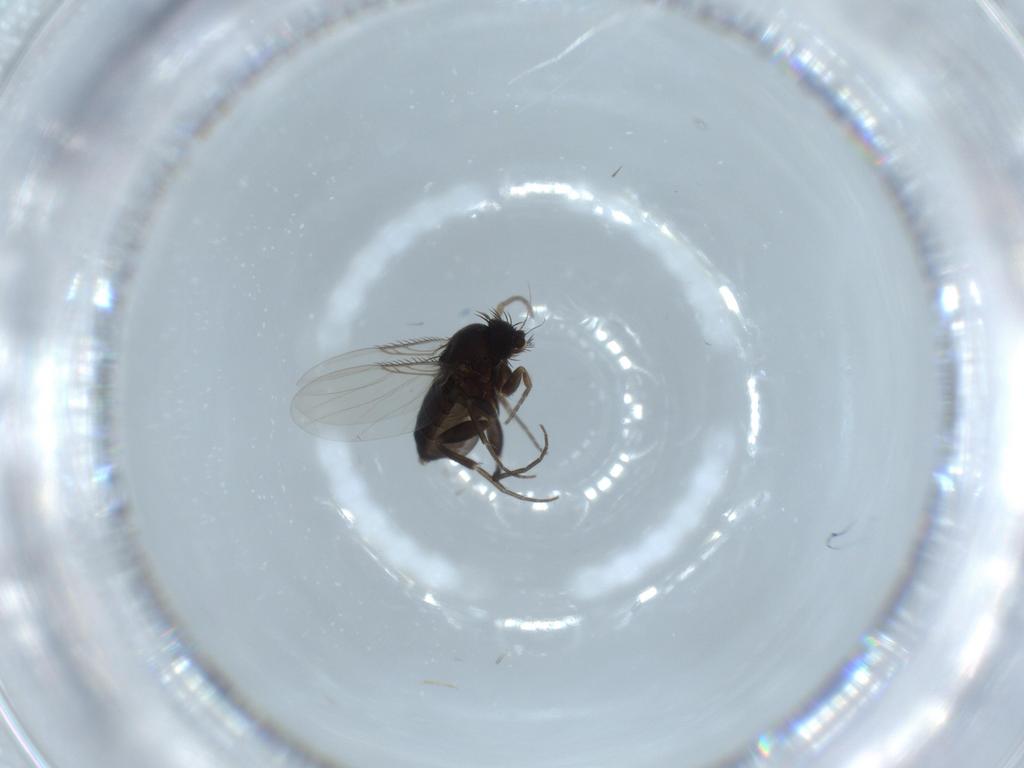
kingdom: Animalia
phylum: Arthropoda
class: Insecta
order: Diptera
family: Phoridae
